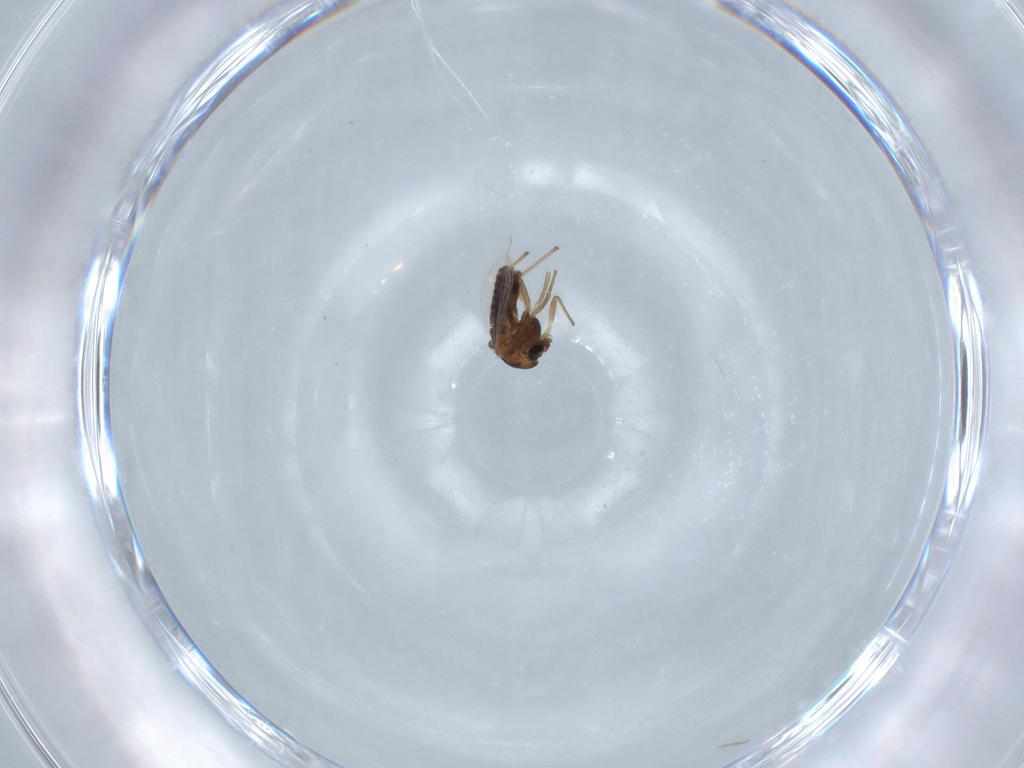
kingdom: Animalia
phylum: Arthropoda
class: Insecta
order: Diptera
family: Chironomidae
